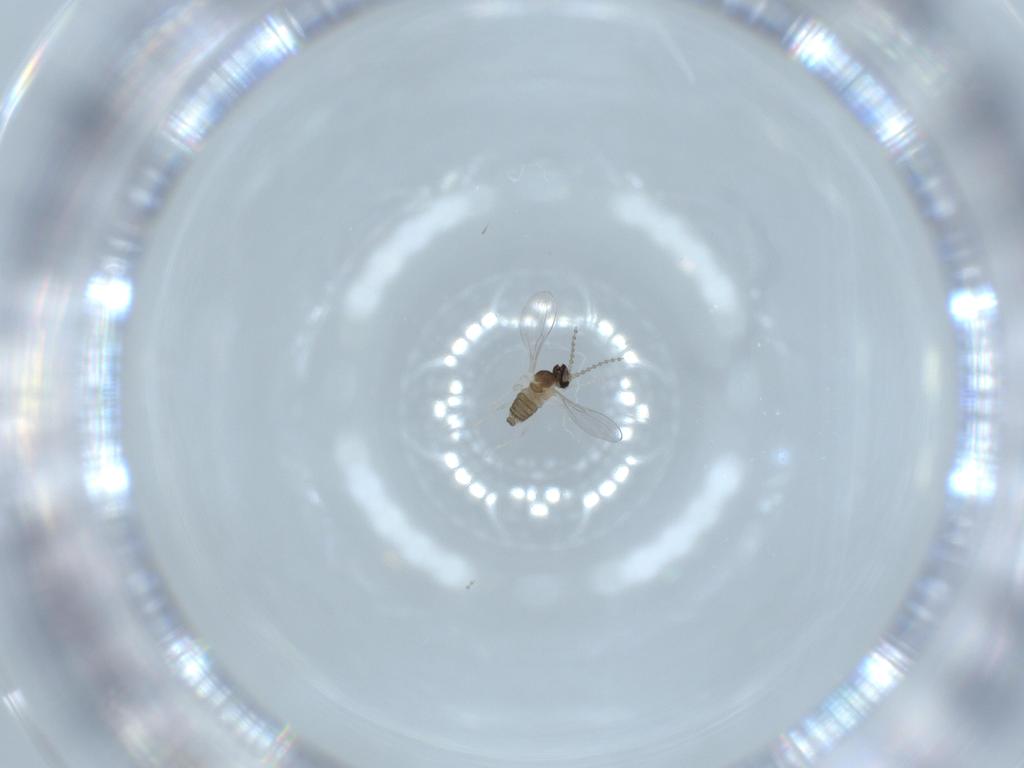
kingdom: Animalia
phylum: Arthropoda
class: Insecta
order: Diptera
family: Cecidomyiidae
